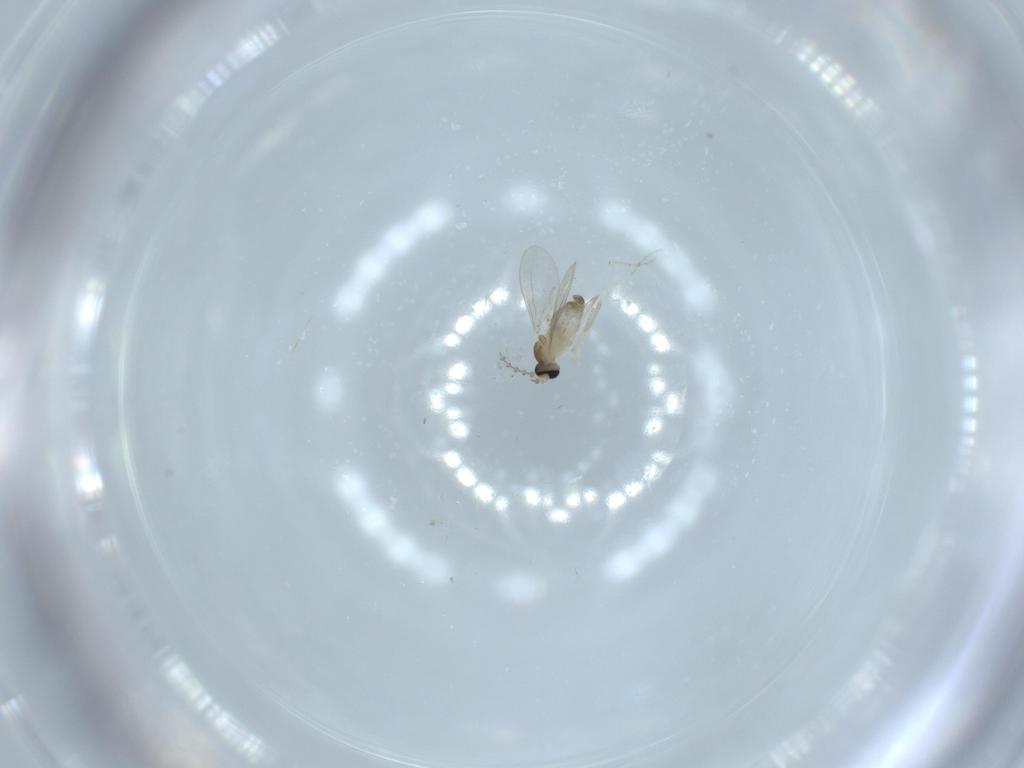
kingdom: Animalia
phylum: Arthropoda
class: Insecta
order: Diptera
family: Cecidomyiidae
